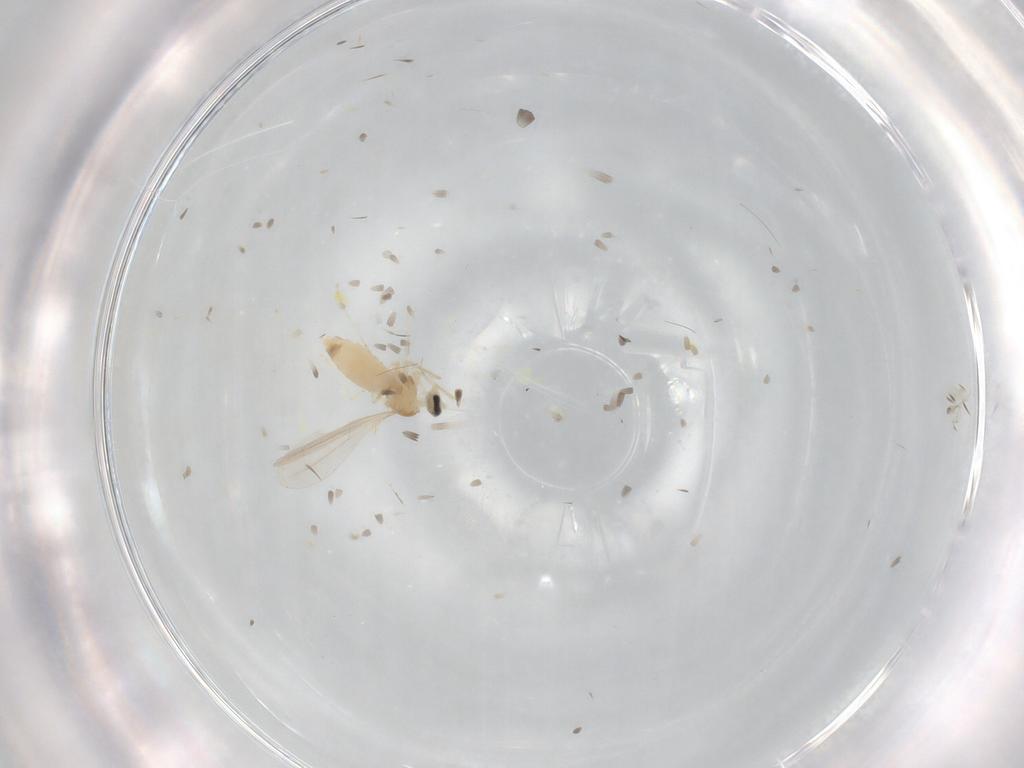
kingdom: Animalia
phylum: Arthropoda
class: Insecta
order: Diptera
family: Cecidomyiidae
